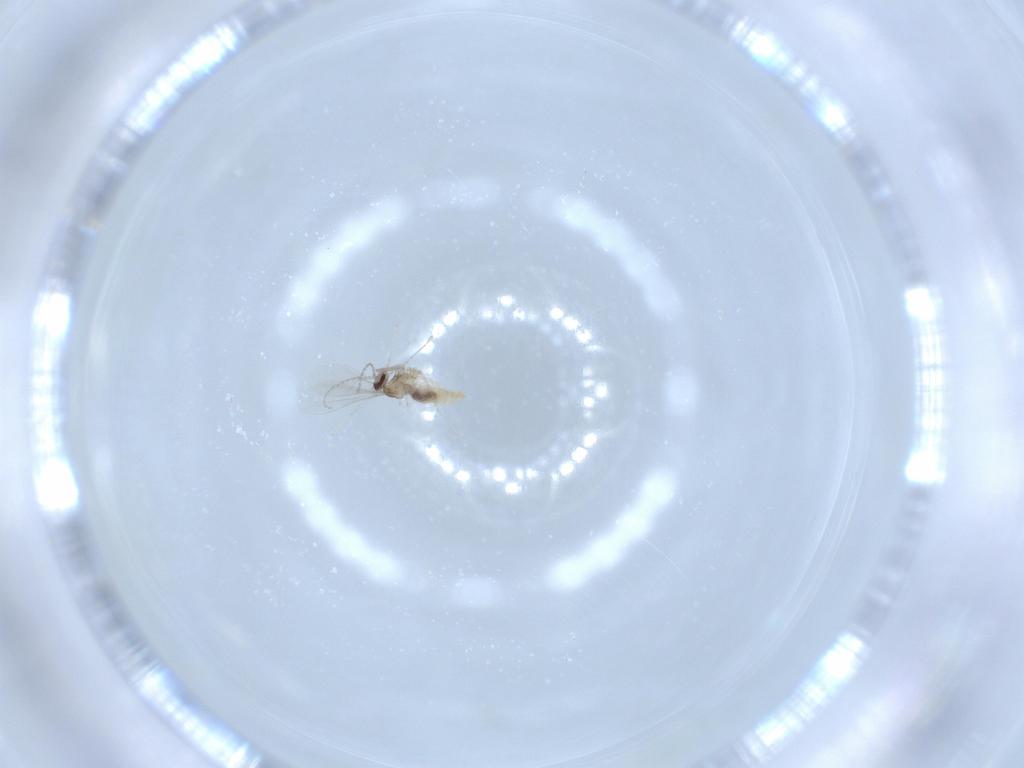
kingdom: Animalia
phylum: Arthropoda
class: Insecta
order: Diptera
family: Cecidomyiidae
